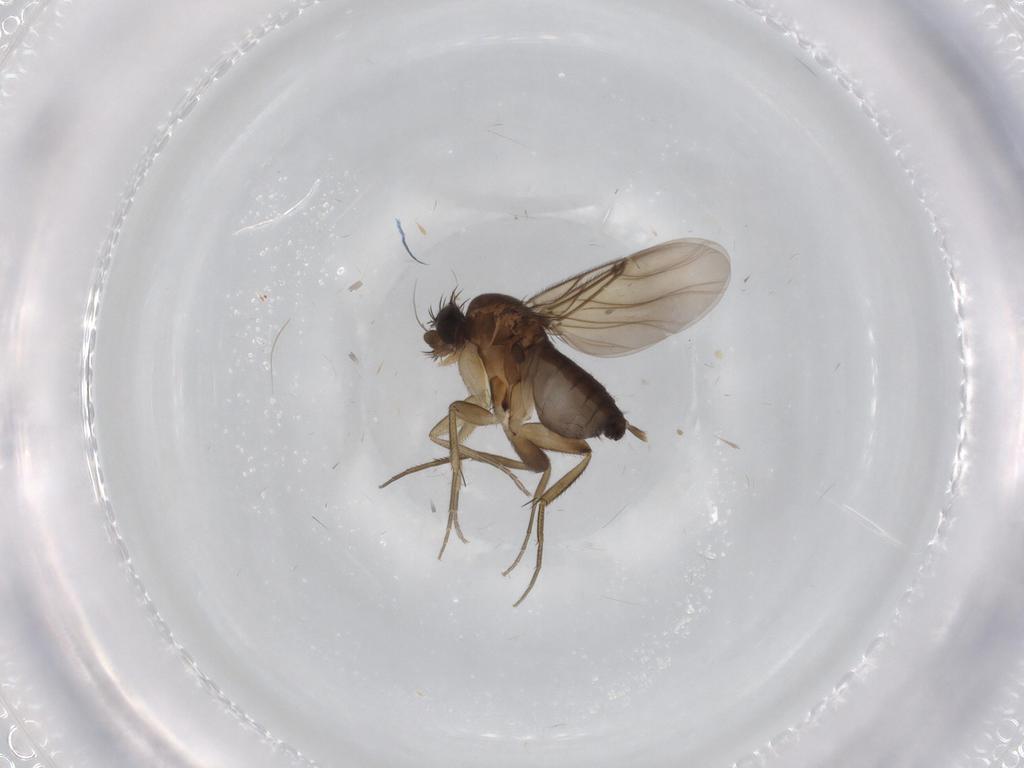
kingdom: Animalia
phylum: Arthropoda
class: Insecta
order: Diptera
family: Phoridae
